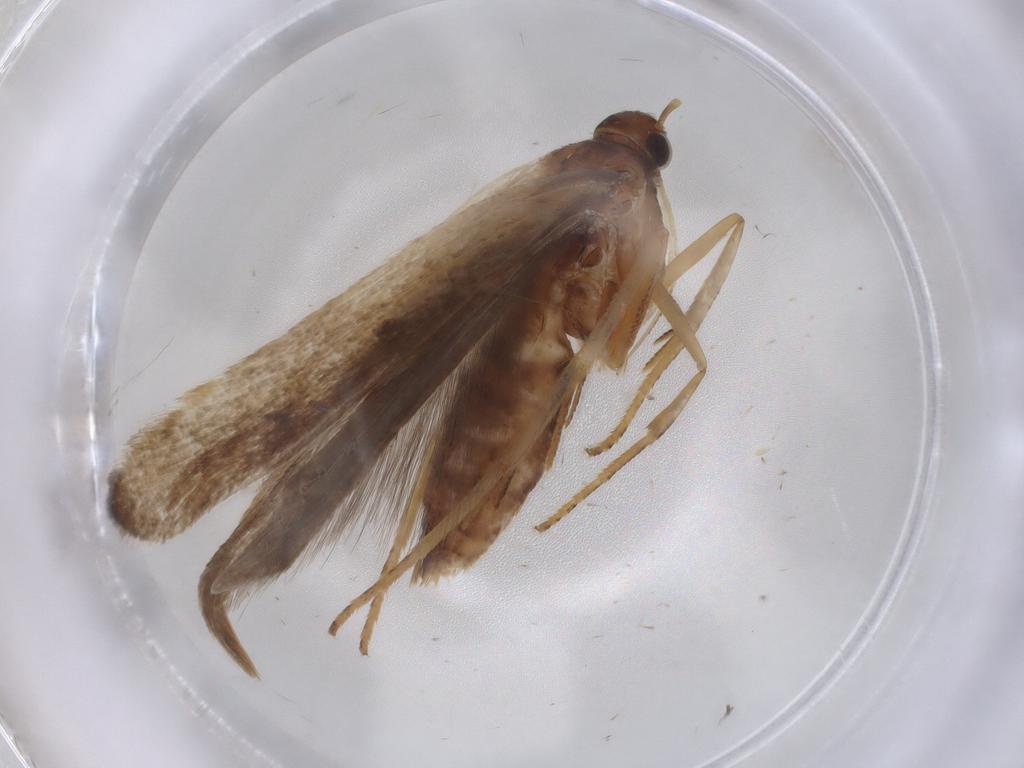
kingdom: Animalia
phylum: Arthropoda
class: Insecta
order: Lepidoptera
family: Gelechiidae
